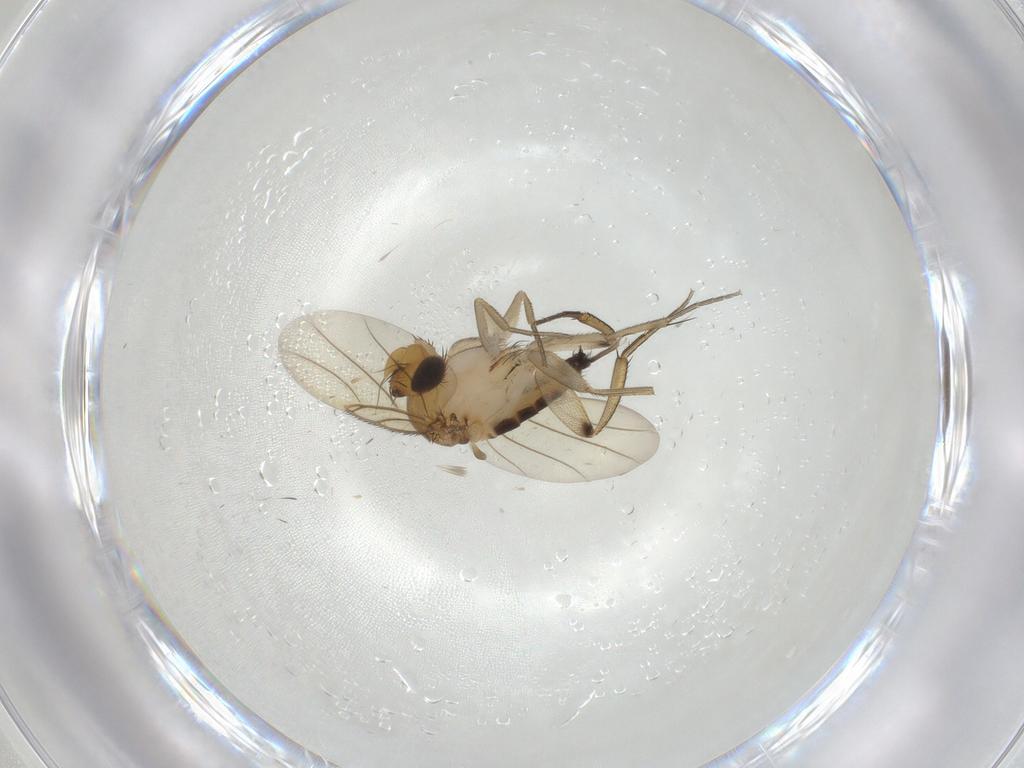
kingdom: Animalia
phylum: Arthropoda
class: Insecta
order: Diptera
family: Phoridae
